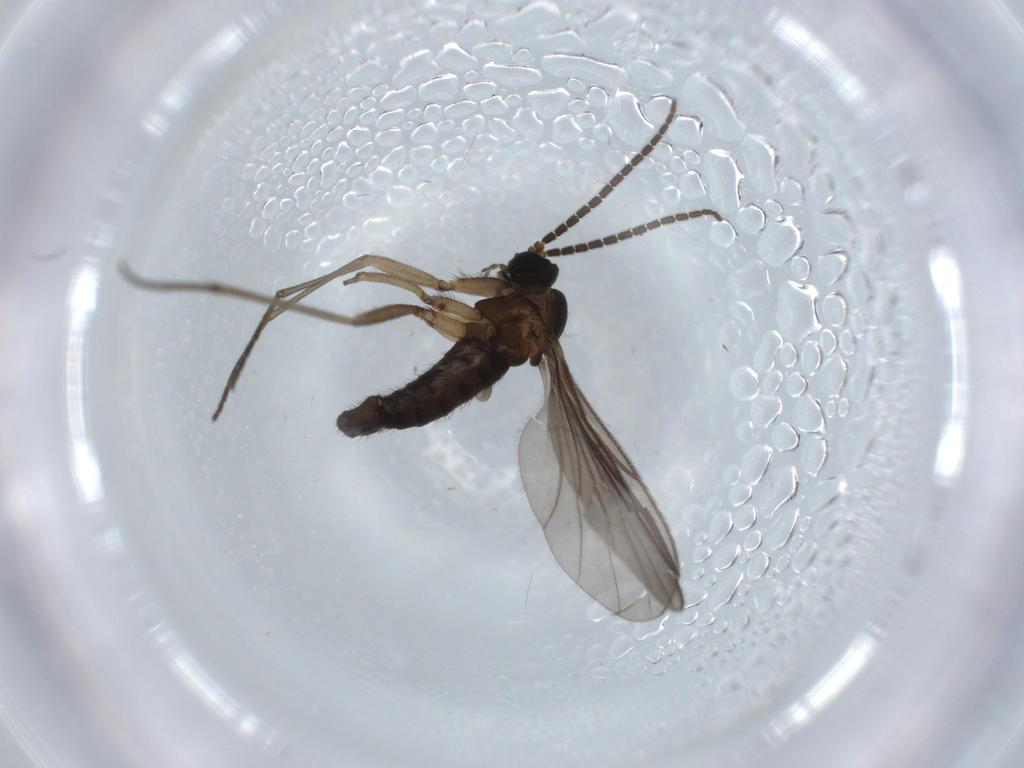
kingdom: Animalia
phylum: Arthropoda
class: Insecta
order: Diptera
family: Sciaridae
